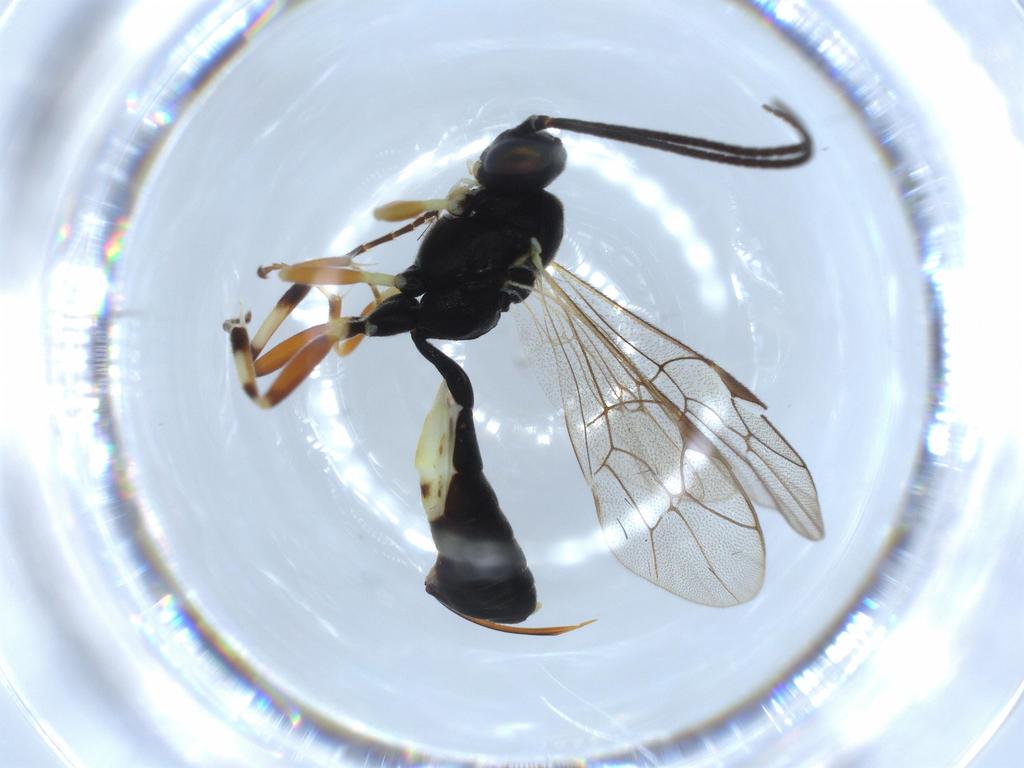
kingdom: Animalia
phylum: Arthropoda
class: Insecta
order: Hymenoptera
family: Ichneumonidae
